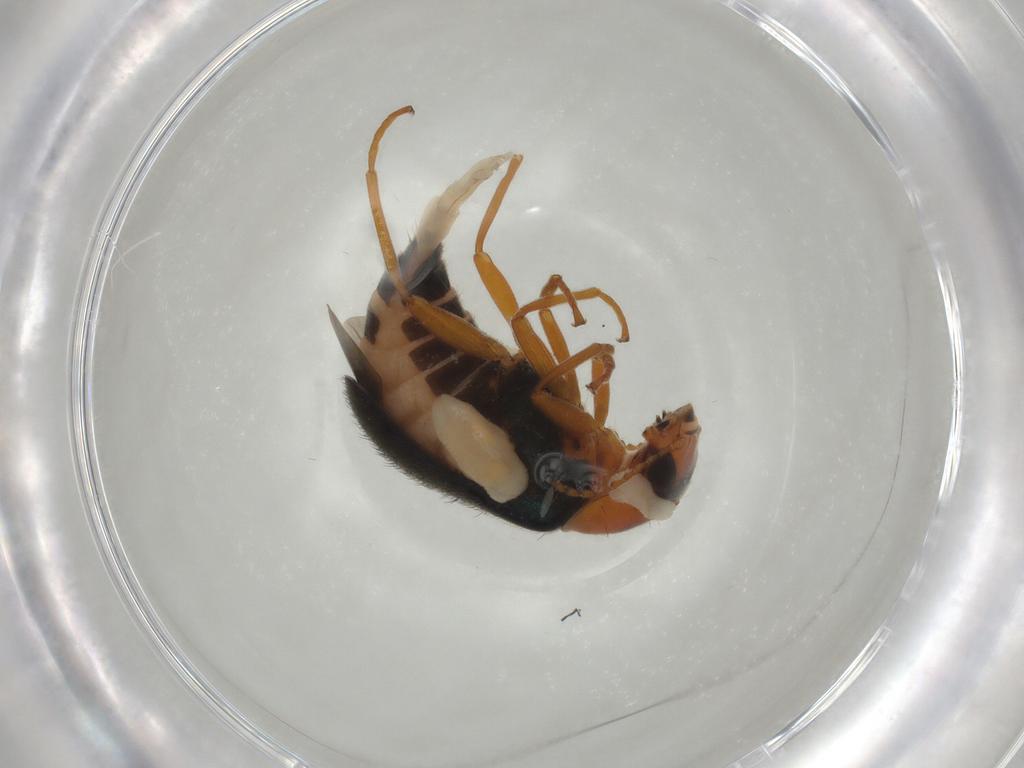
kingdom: Animalia
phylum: Arthropoda
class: Insecta
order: Coleoptera
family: Melyridae
